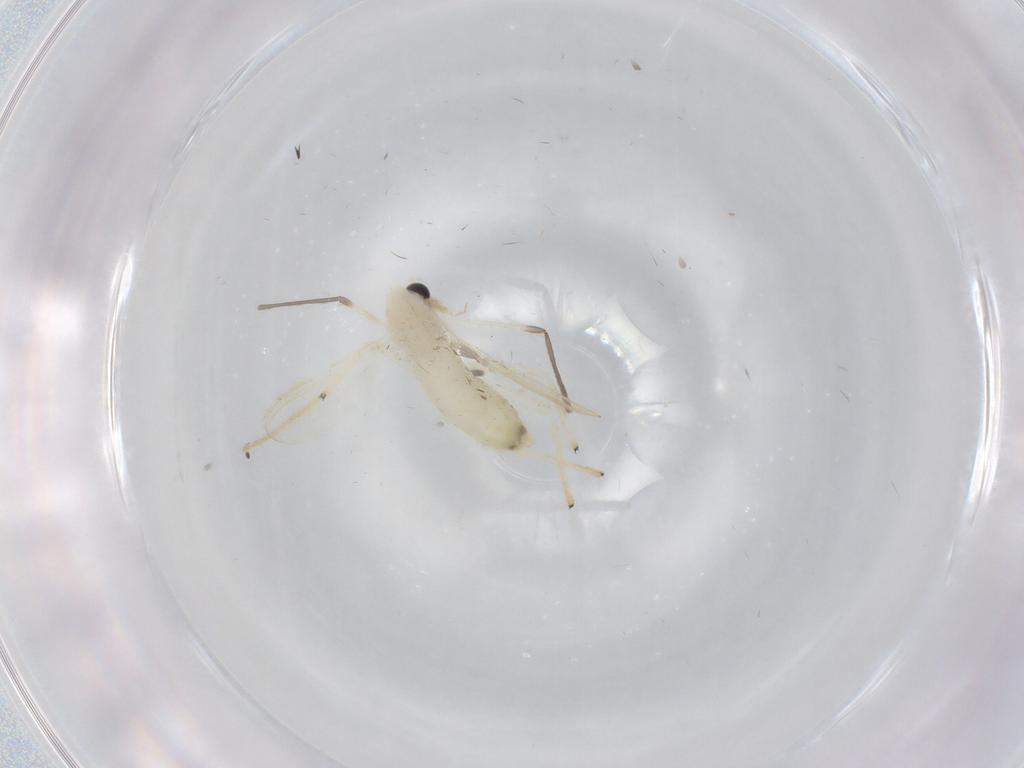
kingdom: Animalia
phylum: Arthropoda
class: Insecta
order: Diptera
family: Chironomidae
